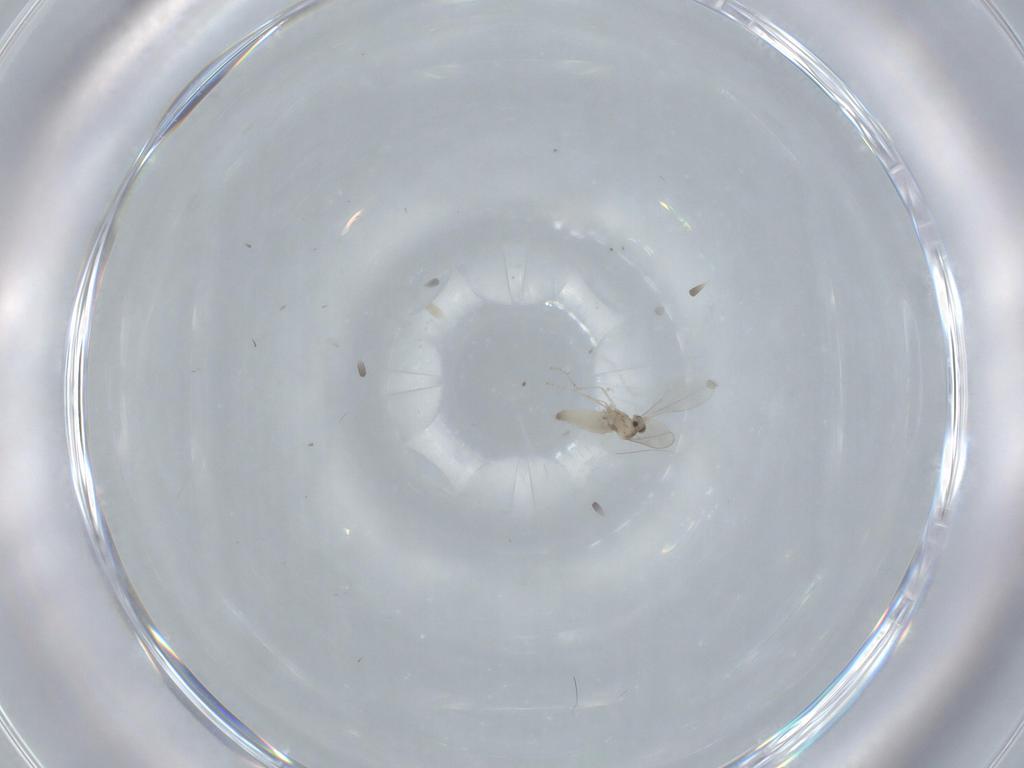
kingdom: Animalia
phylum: Arthropoda
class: Insecta
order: Diptera
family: Cecidomyiidae
